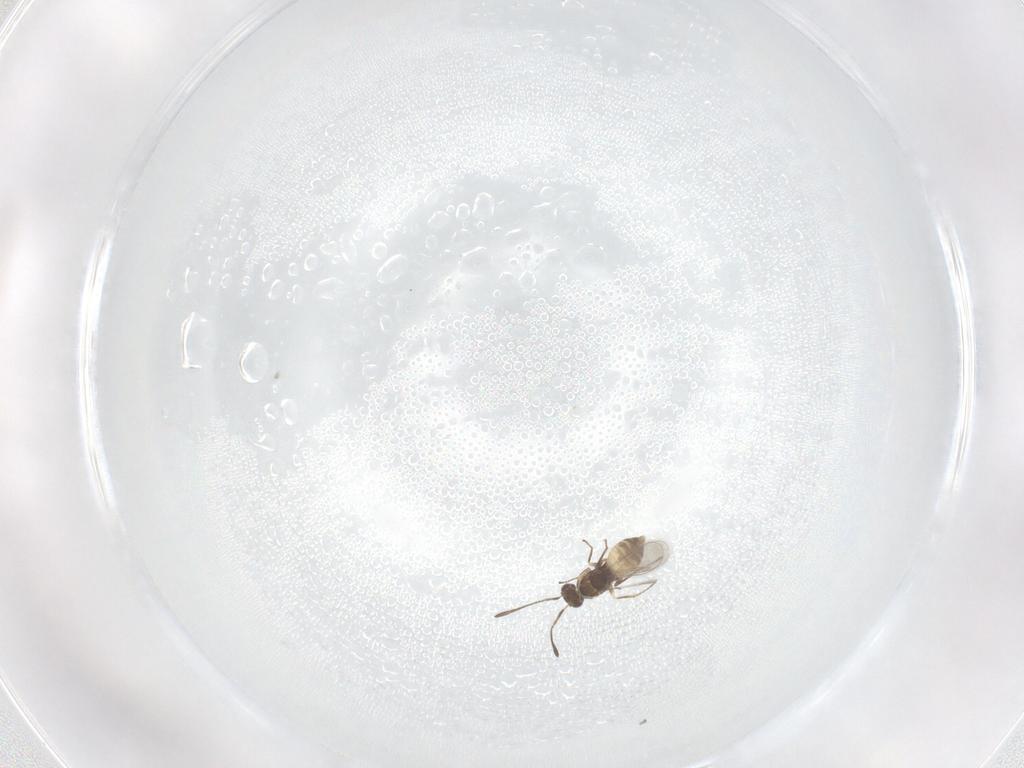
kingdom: Animalia
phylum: Arthropoda
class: Insecta
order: Hymenoptera
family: Mymaridae
